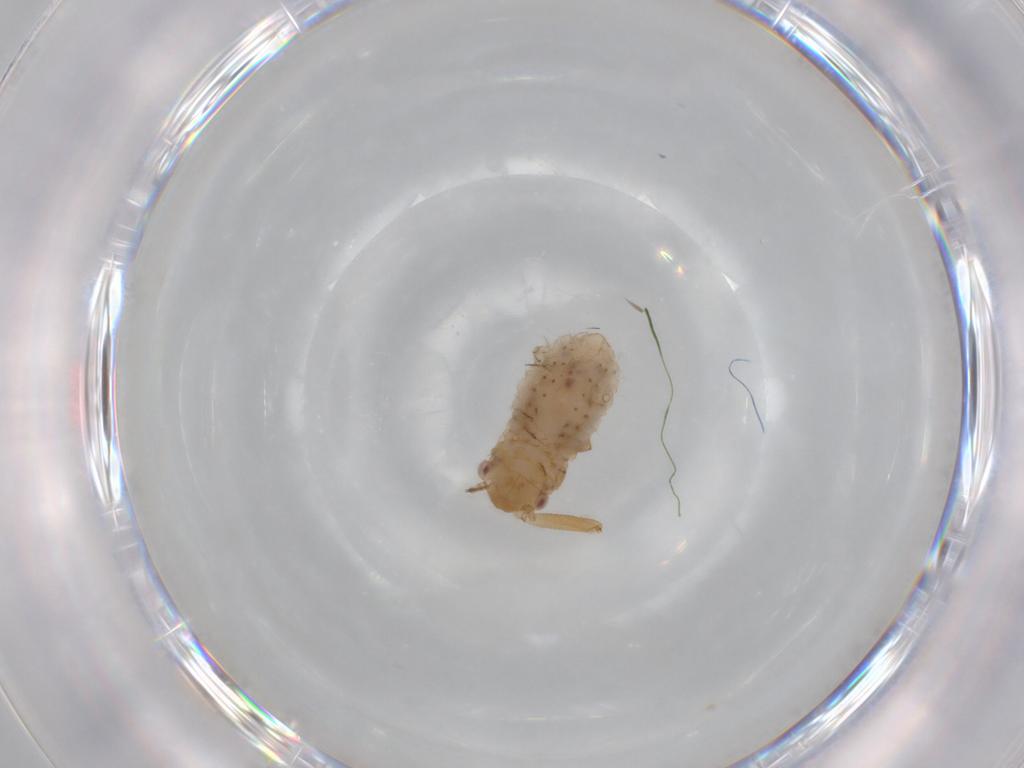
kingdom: Animalia
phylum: Arthropoda
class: Insecta
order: Hemiptera
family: Aphididae
